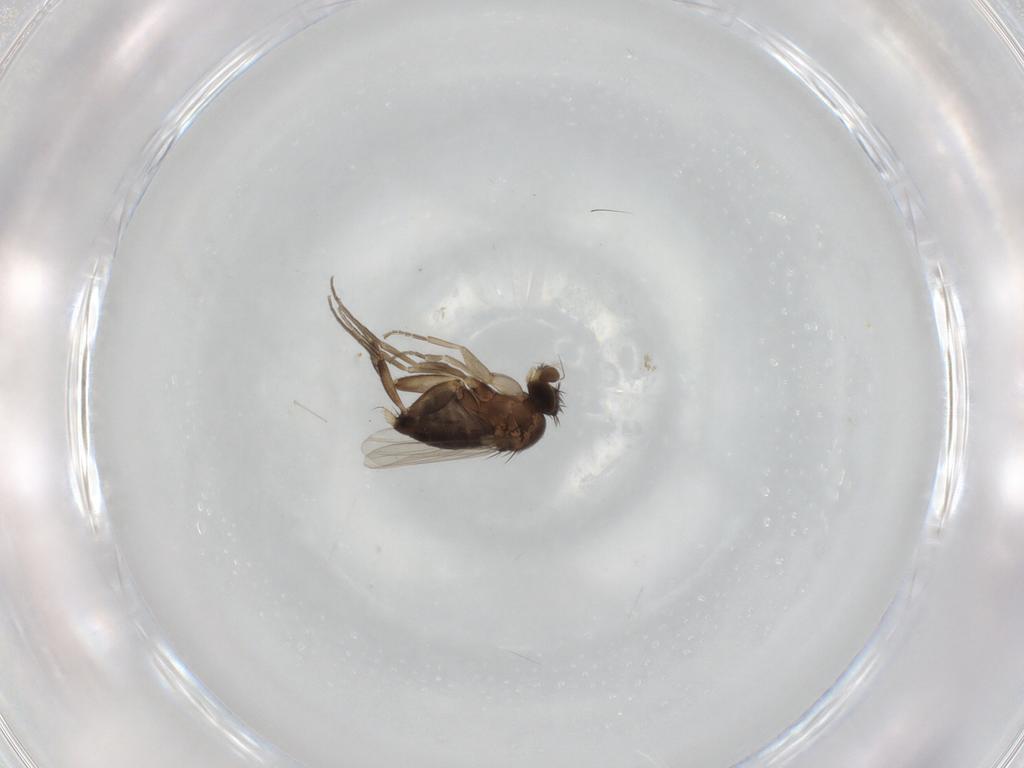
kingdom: Animalia
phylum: Arthropoda
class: Insecta
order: Diptera
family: Phoridae
